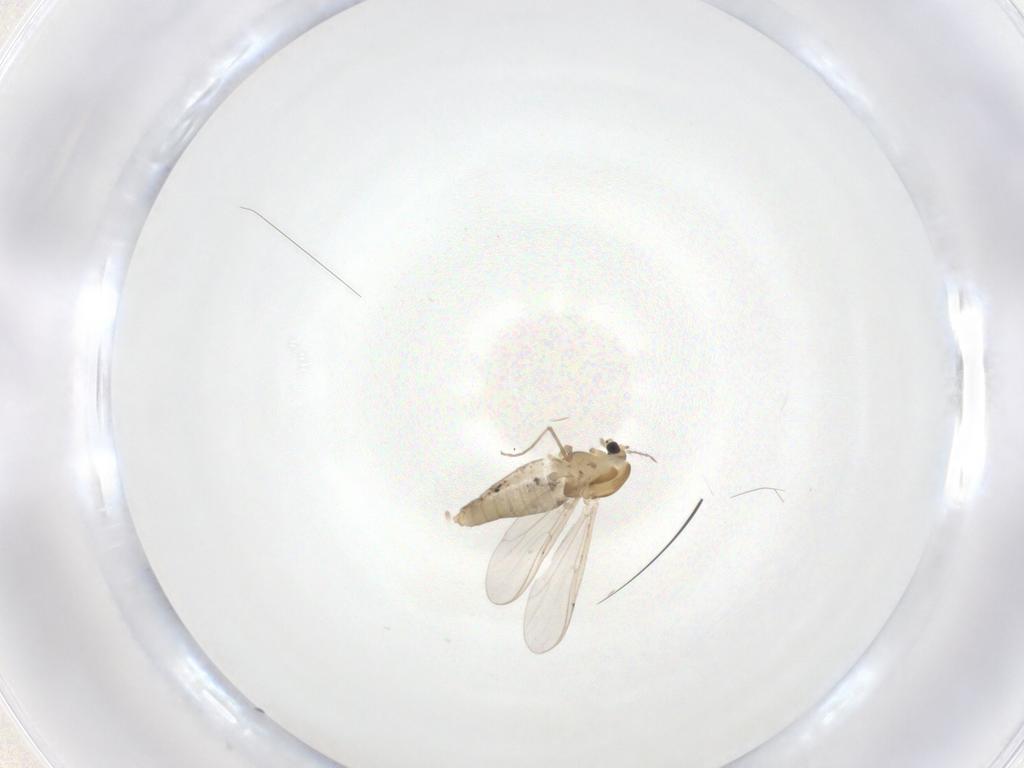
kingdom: Animalia
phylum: Arthropoda
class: Insecta
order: Diptera
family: Chironomidae
